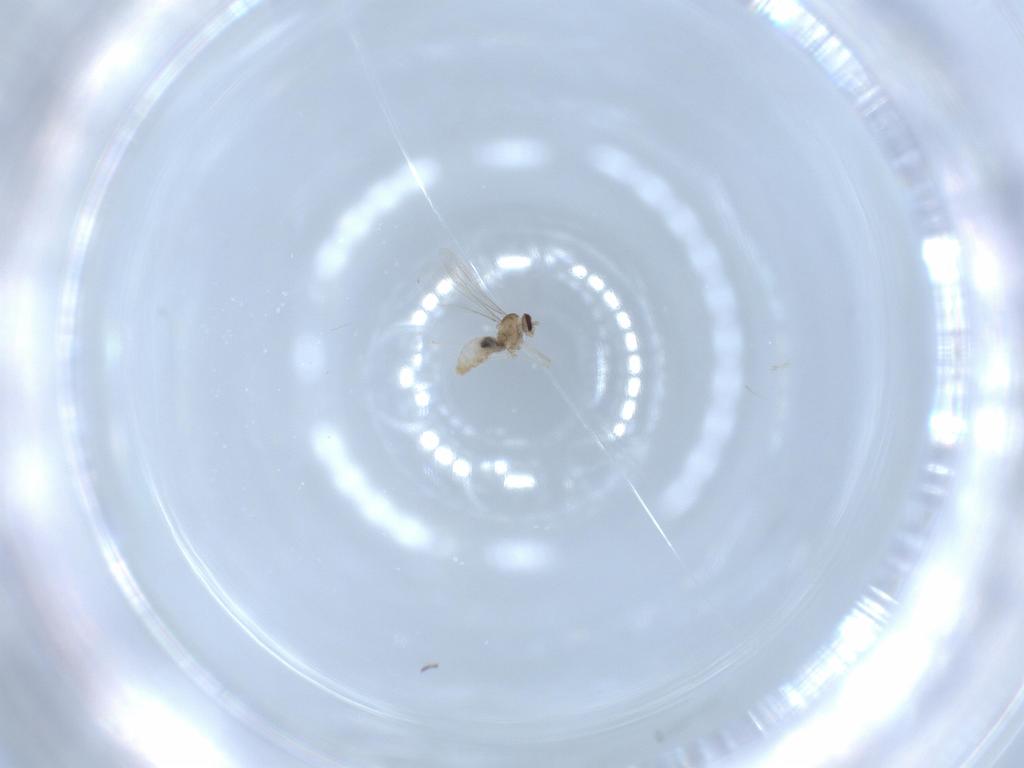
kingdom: Animalia
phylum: Arthropoda
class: Insecta
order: Diptera
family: Cecidomyiidae
